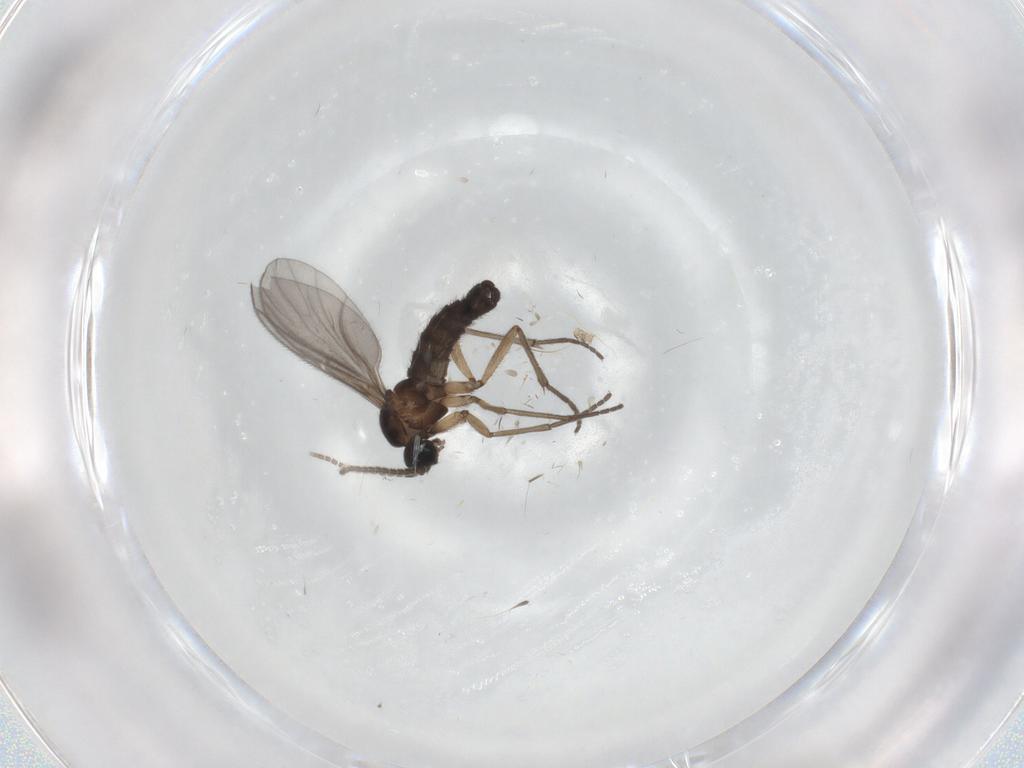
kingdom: Animalia
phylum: Arthropoda
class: Insecta
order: Diptera
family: Sciaridae
